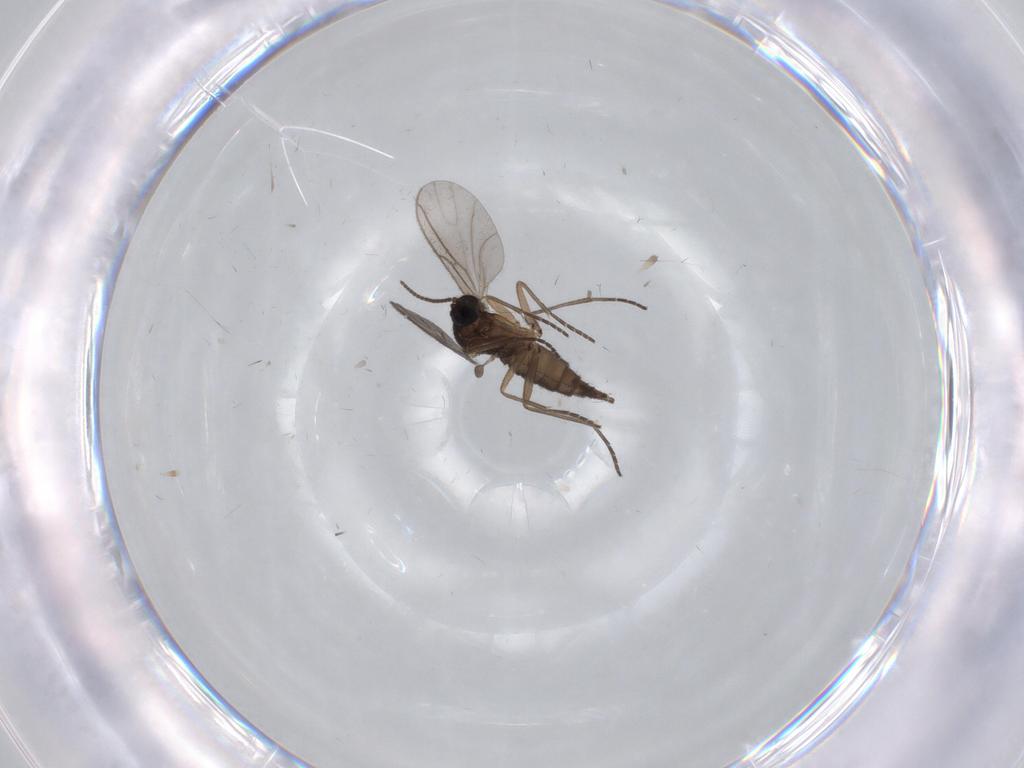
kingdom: Animalia
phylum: Arthropoda
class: Insecta
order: Diptera
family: Sciaridae
